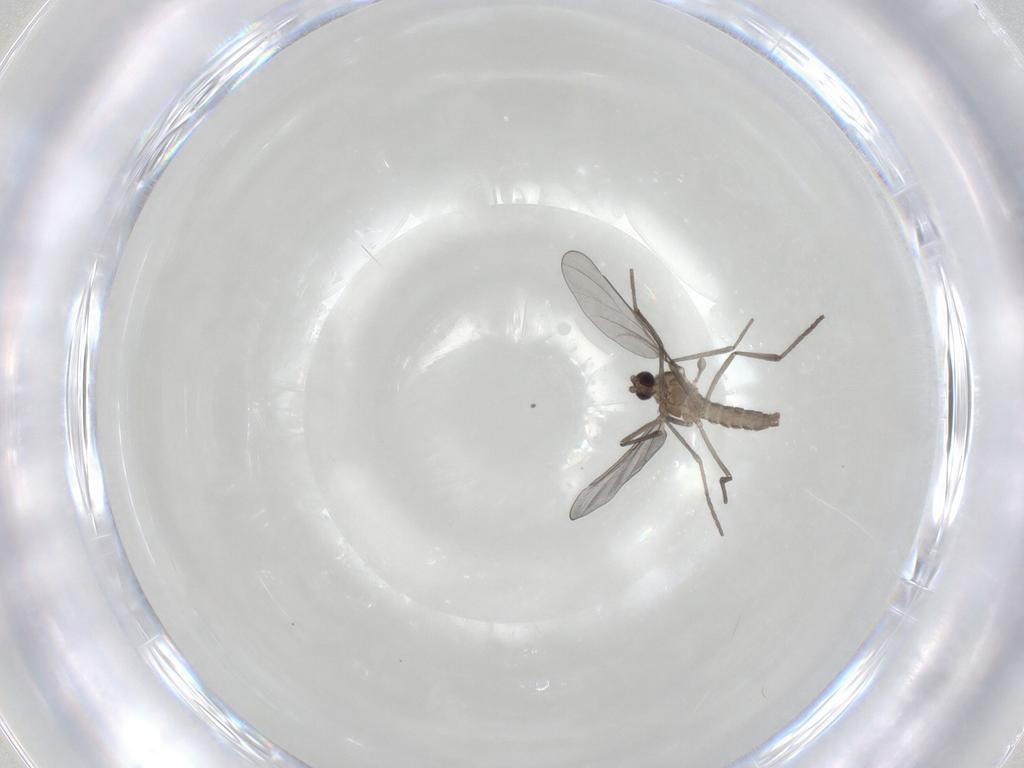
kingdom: Animalia
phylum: Arthropoda
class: Insecta
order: Diptera
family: Cecidomyiidae
